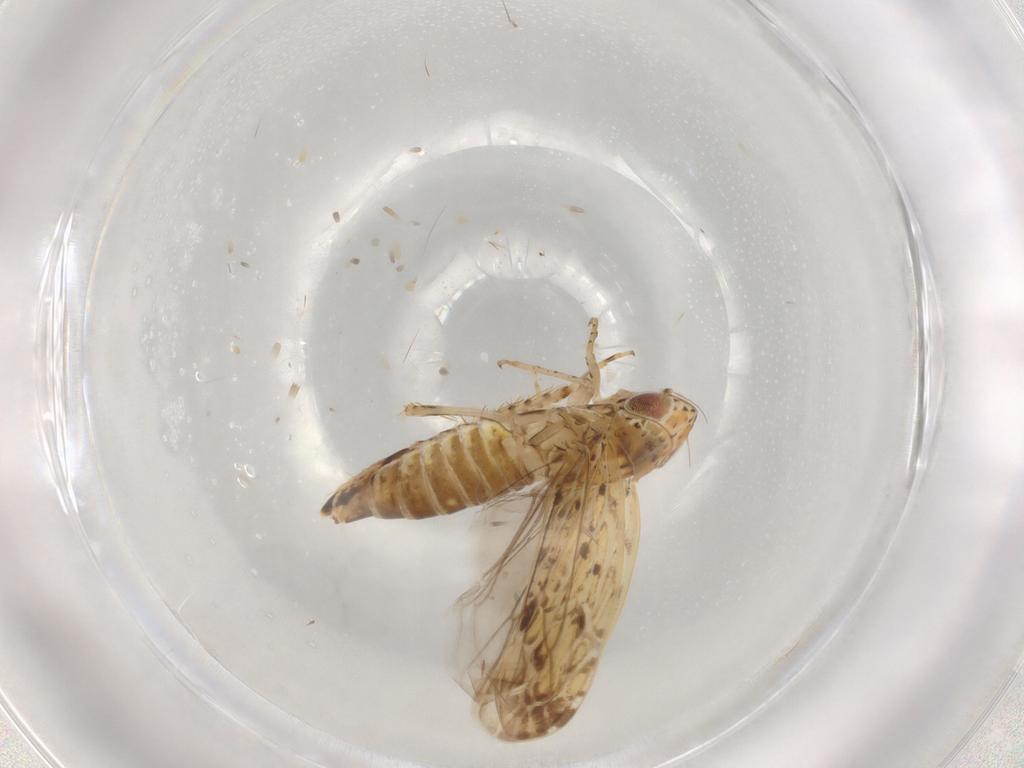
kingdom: Animalia
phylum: Arthropoda
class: Insecta
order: Hemiptera
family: Cicadellidae
